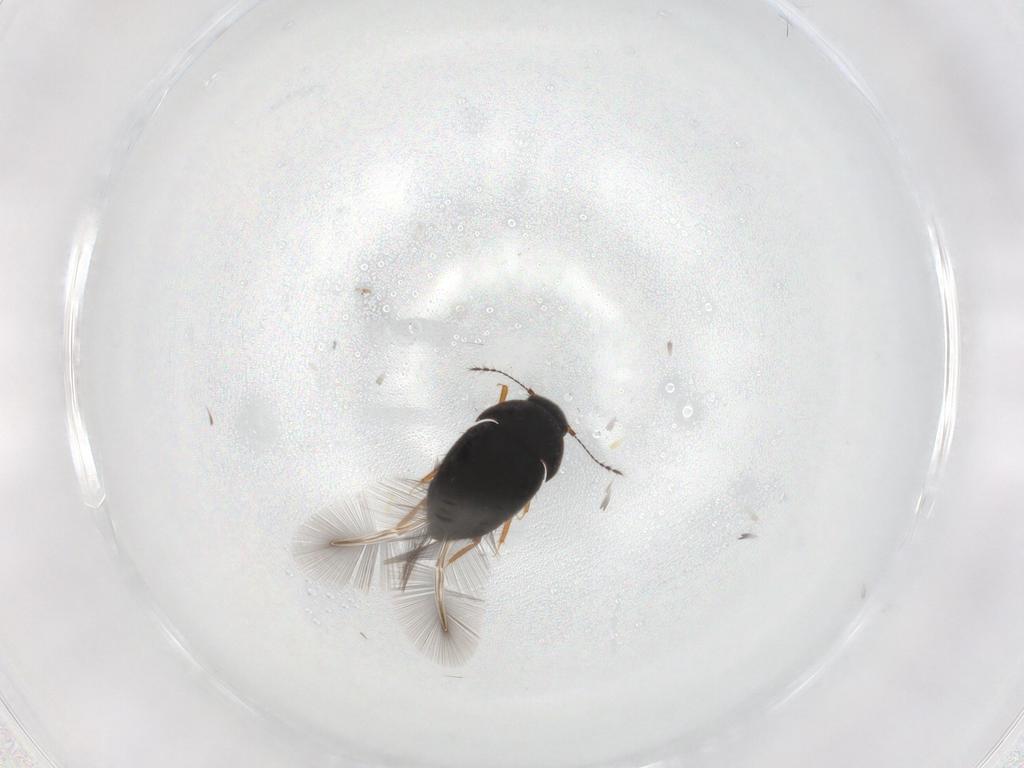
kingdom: Animalia
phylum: Arthropoda
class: Insecta
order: Coleoptera
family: Chrysomelidae
